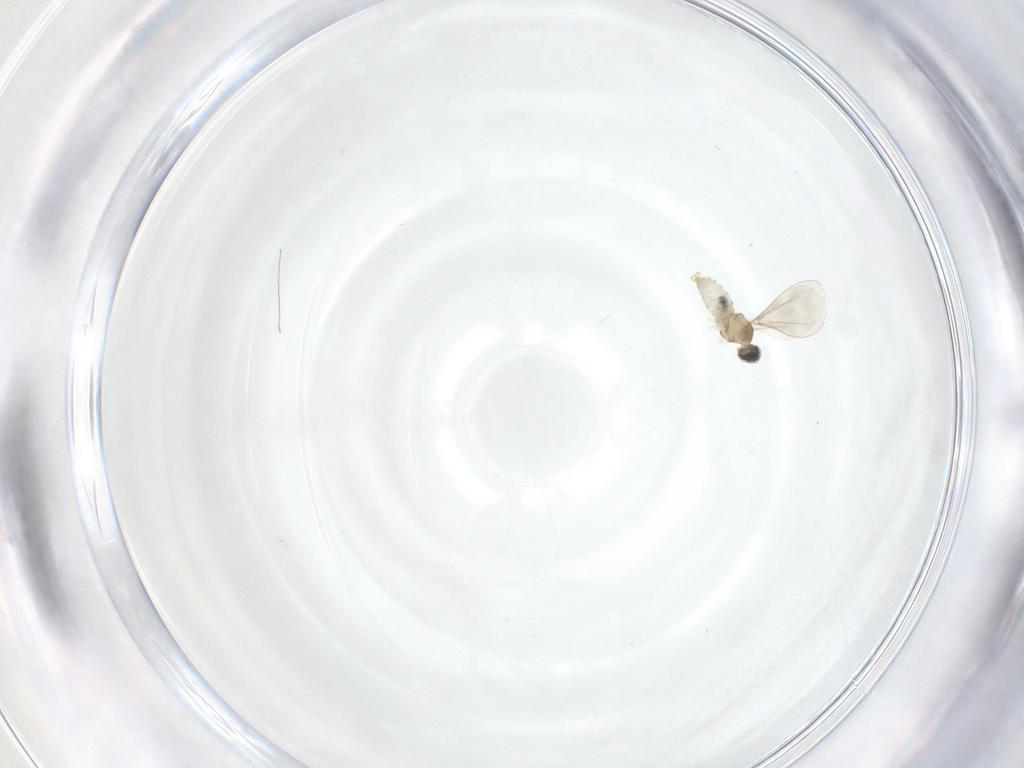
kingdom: Animalia
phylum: Arthropoda
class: Insecta
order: Diptera
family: Cecidomyiidae
